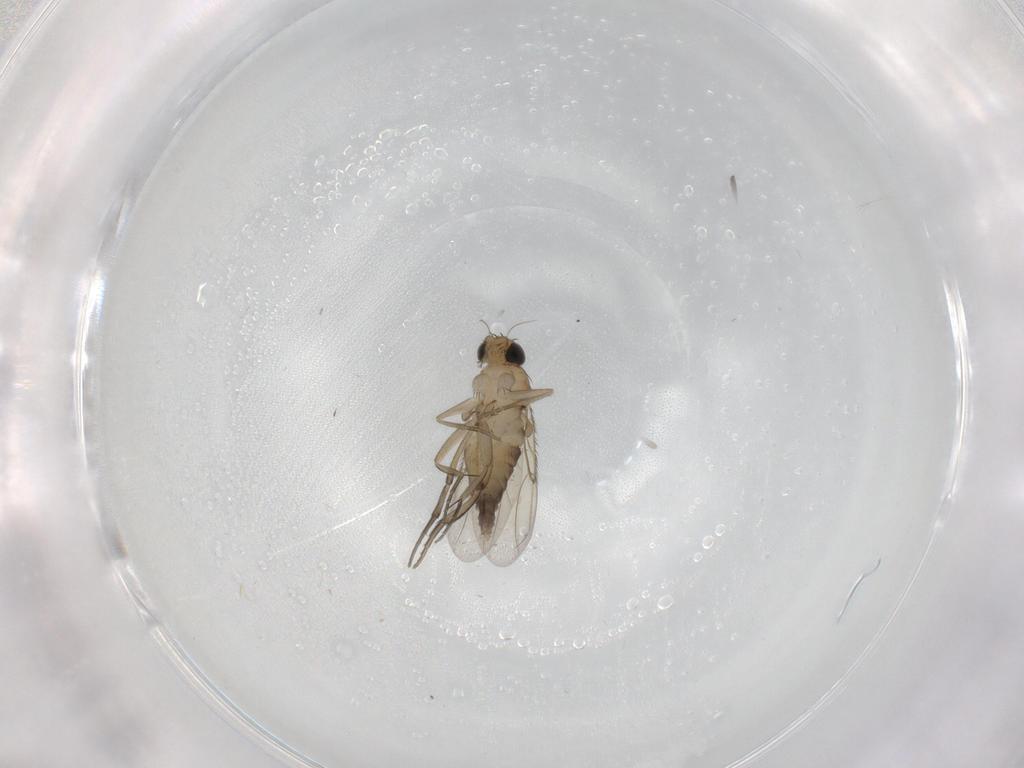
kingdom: Animalia
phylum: Arthropoda
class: Insecta
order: Diptera
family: Phoridae
